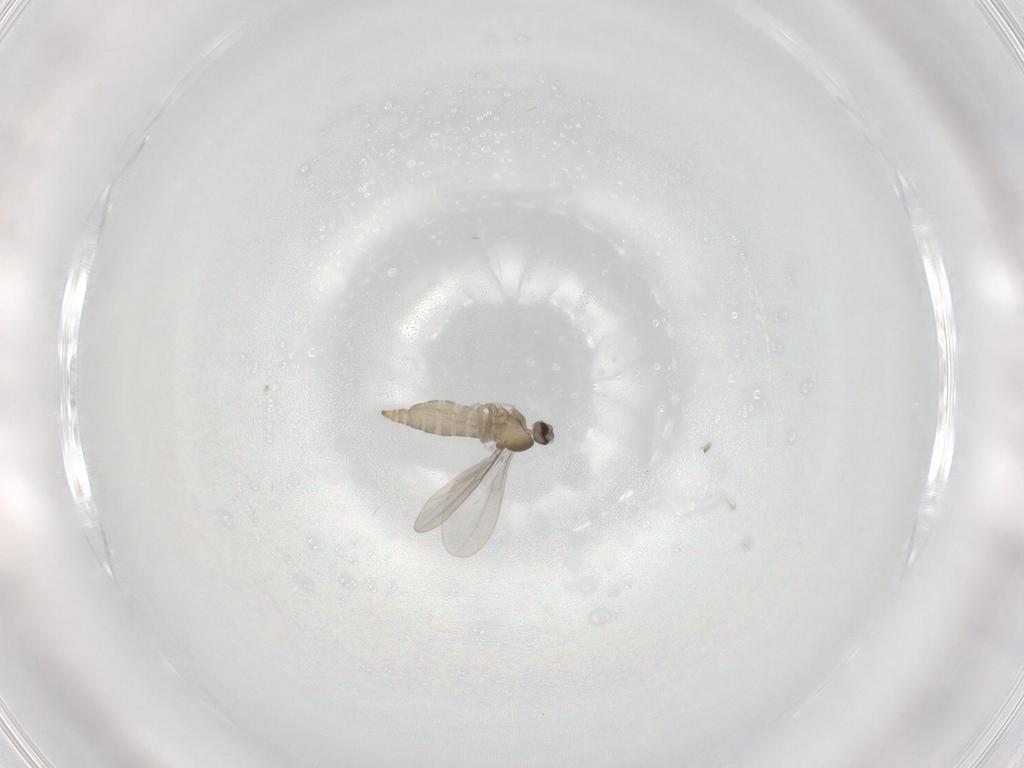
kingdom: Animalia
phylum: Arthropoda
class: Insecta
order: Diptera
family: Cecidomyiidae
